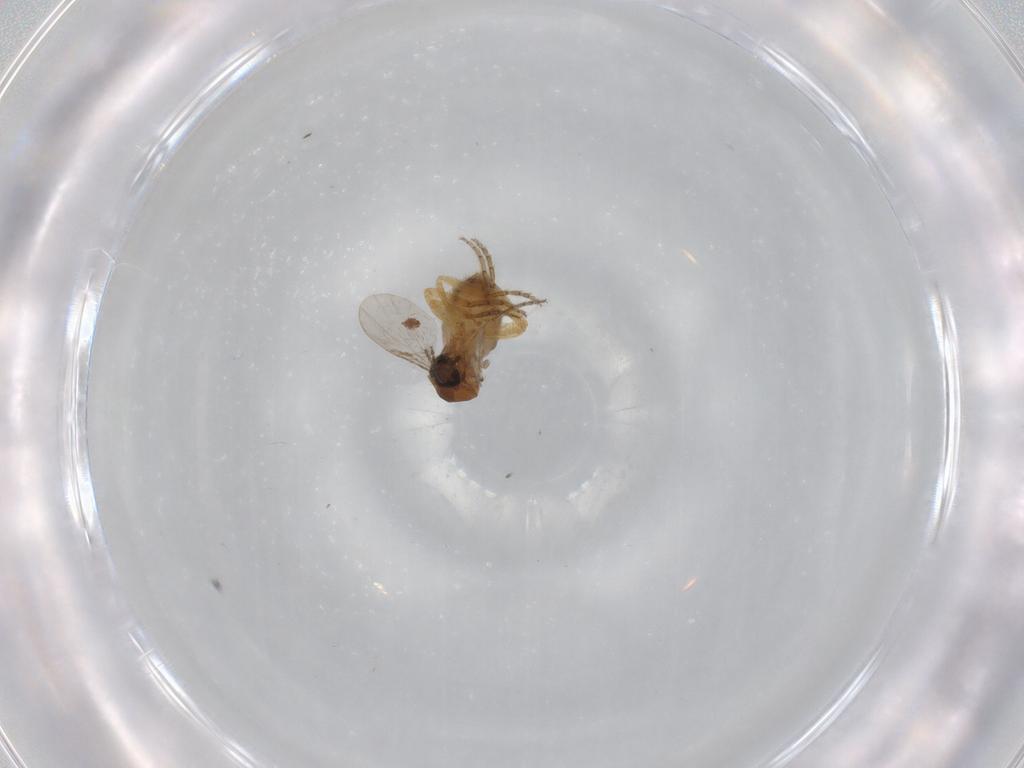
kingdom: Animalia
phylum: Arthropoda
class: Insecta
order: Diptera
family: Ceratopogonidae
